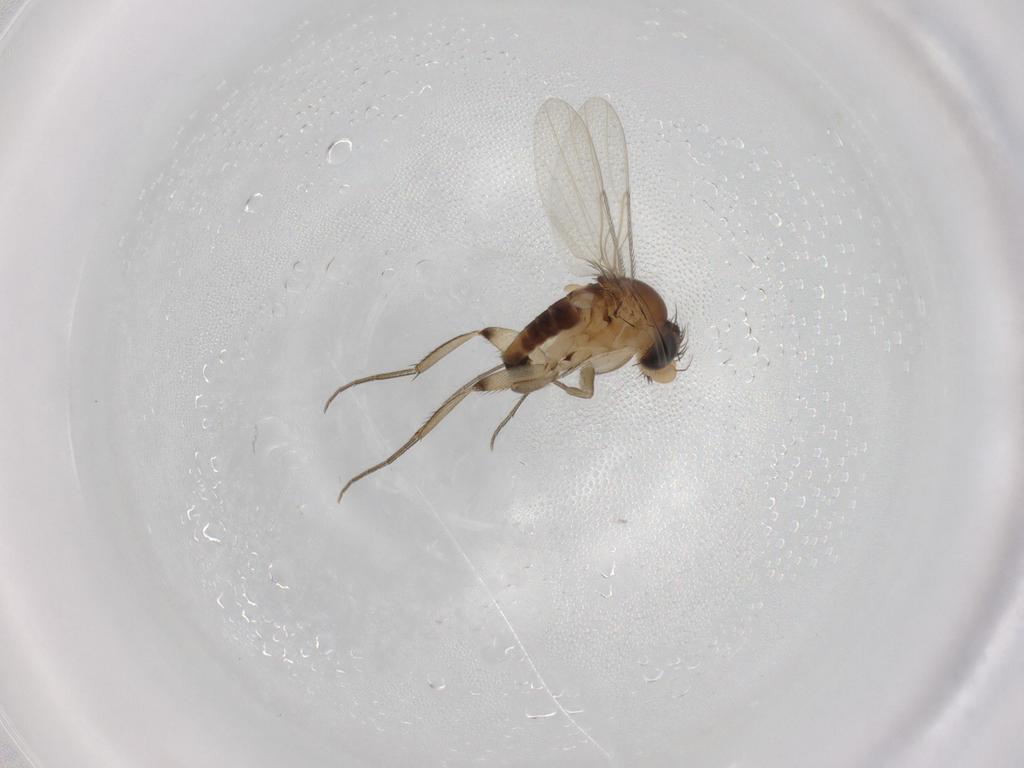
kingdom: Animalia
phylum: Arthropoda
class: Insecta
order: Diptera
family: Phoridae
